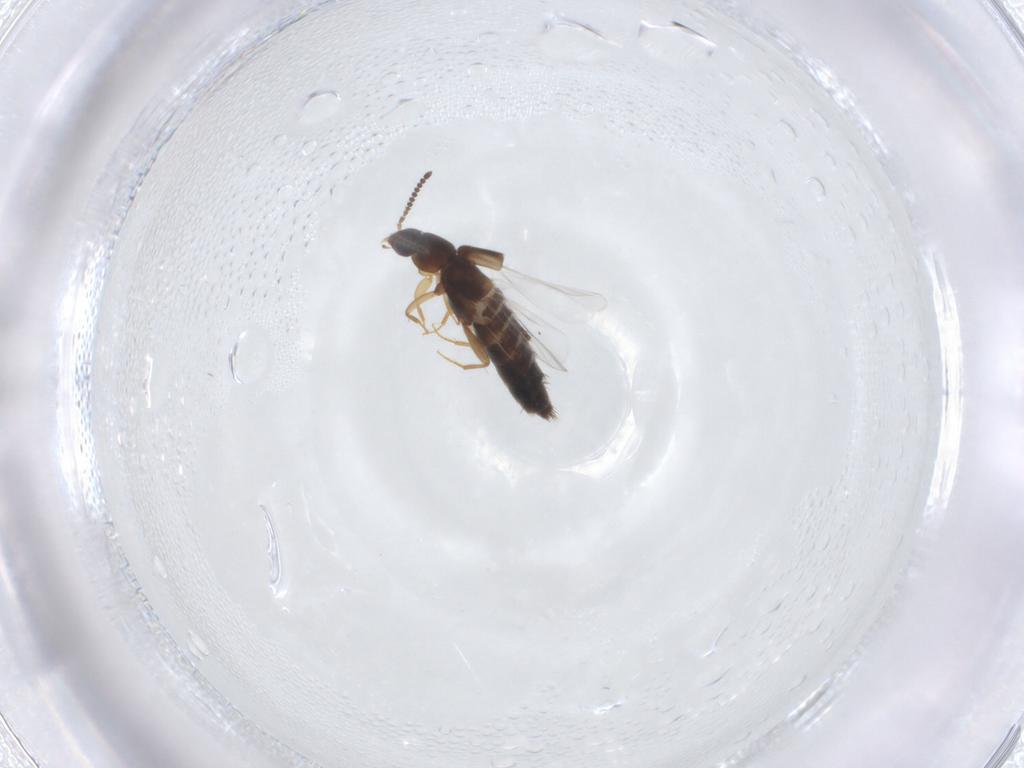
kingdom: Animalia
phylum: Arthropoda
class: Insecta
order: Coleoptera
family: Staphylinidae
